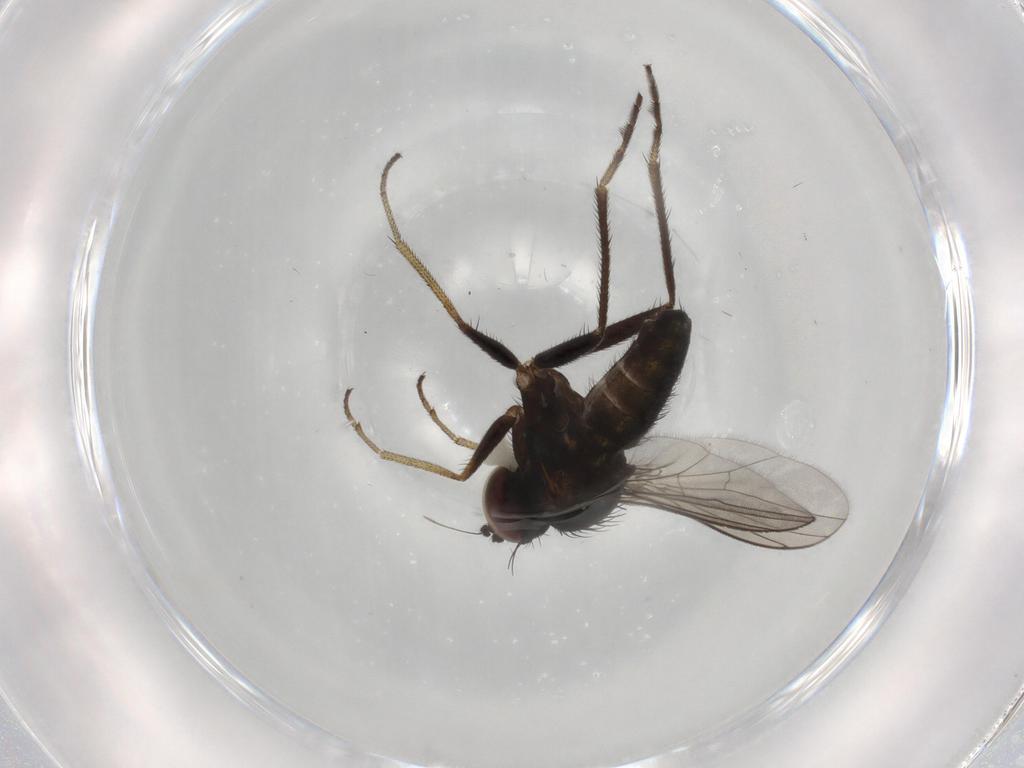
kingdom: Animalia
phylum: Arthropoda
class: Insecta
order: Diptera
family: Dolichopodidae
